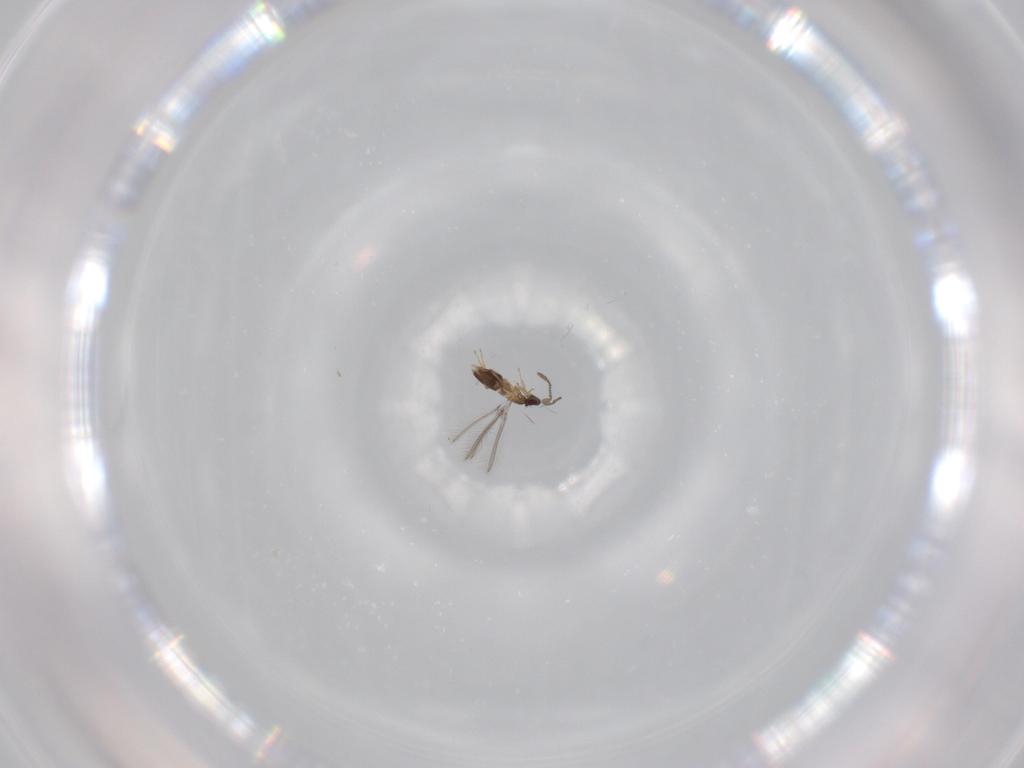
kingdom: Animalia
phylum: Arthropoda
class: Insecta
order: Hymenoptera
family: Mymaridae
